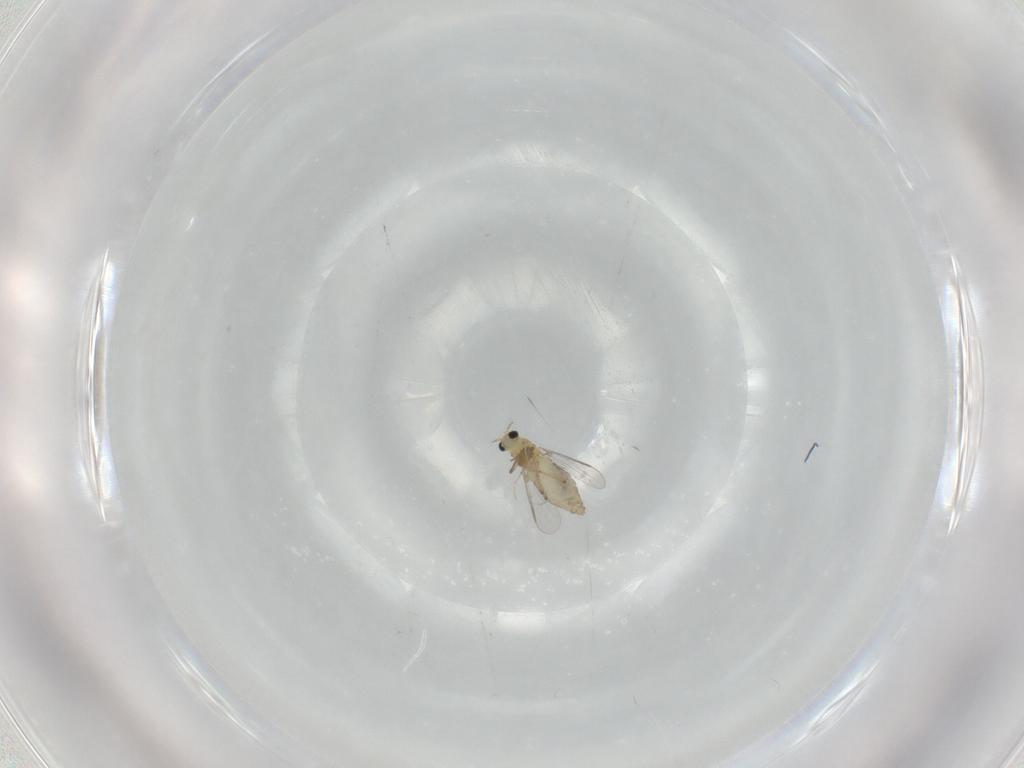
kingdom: Animalia
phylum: Arthropoda
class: Insecta
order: Diptera
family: Chironomidae
